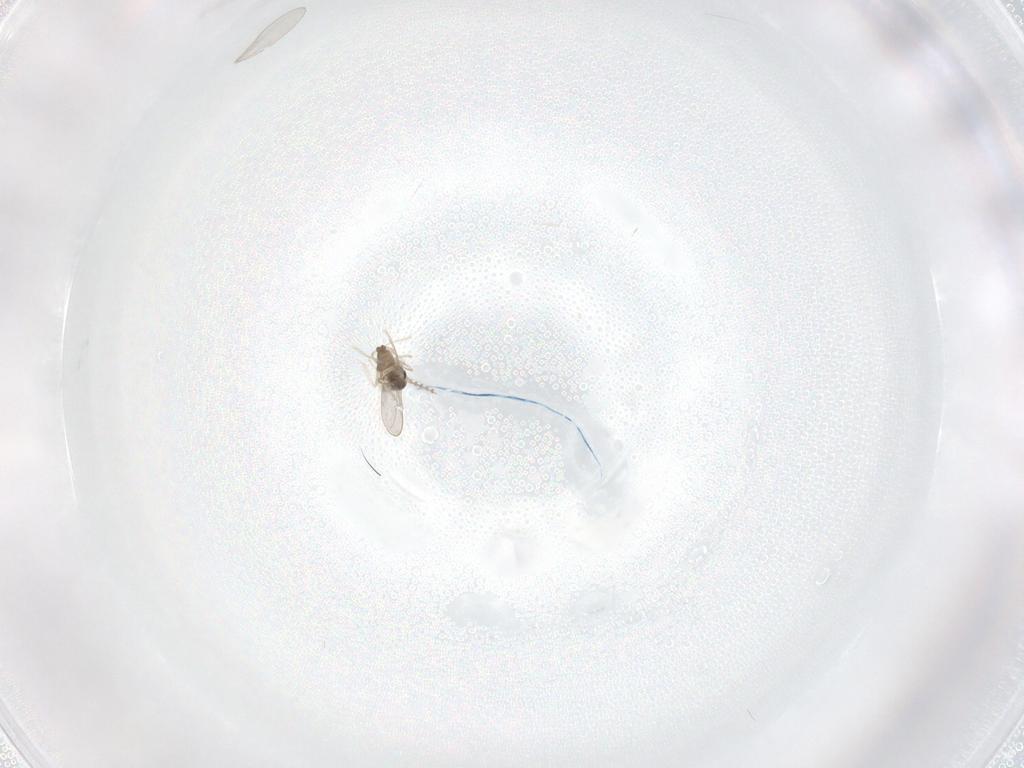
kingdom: Animalia
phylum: Arthropoda
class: Insecta
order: Diptera
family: Cecidomyiidae
